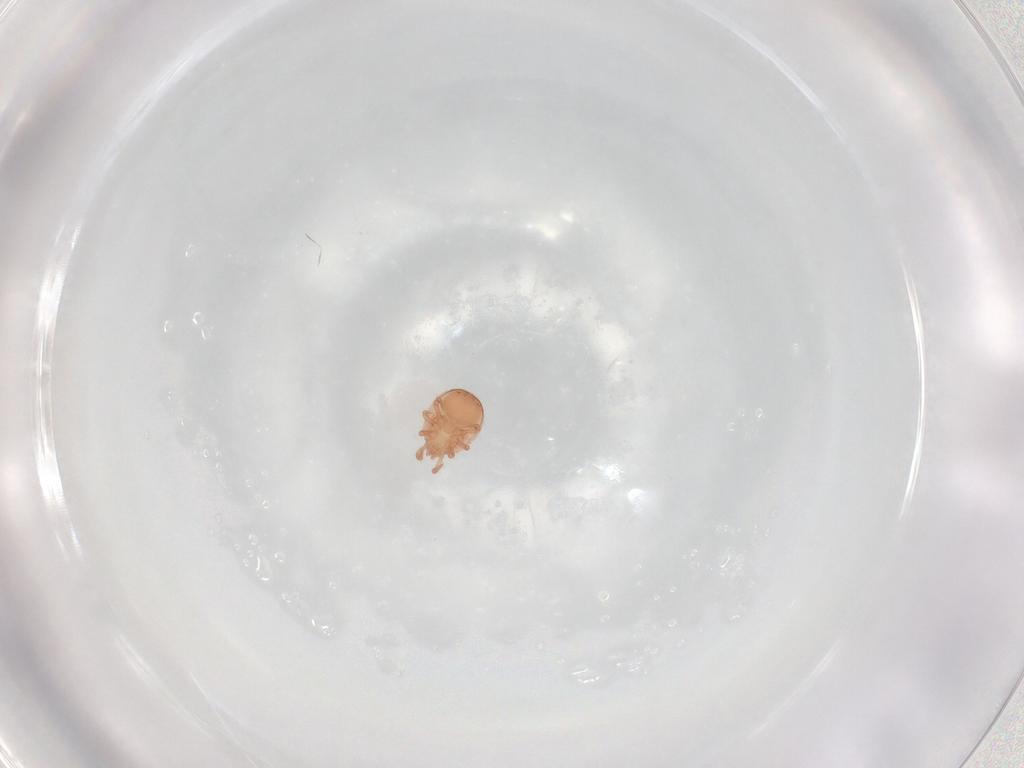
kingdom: Animalia
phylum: Arthropoda
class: Arachnida
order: Mesostigmata
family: Zerconidae
